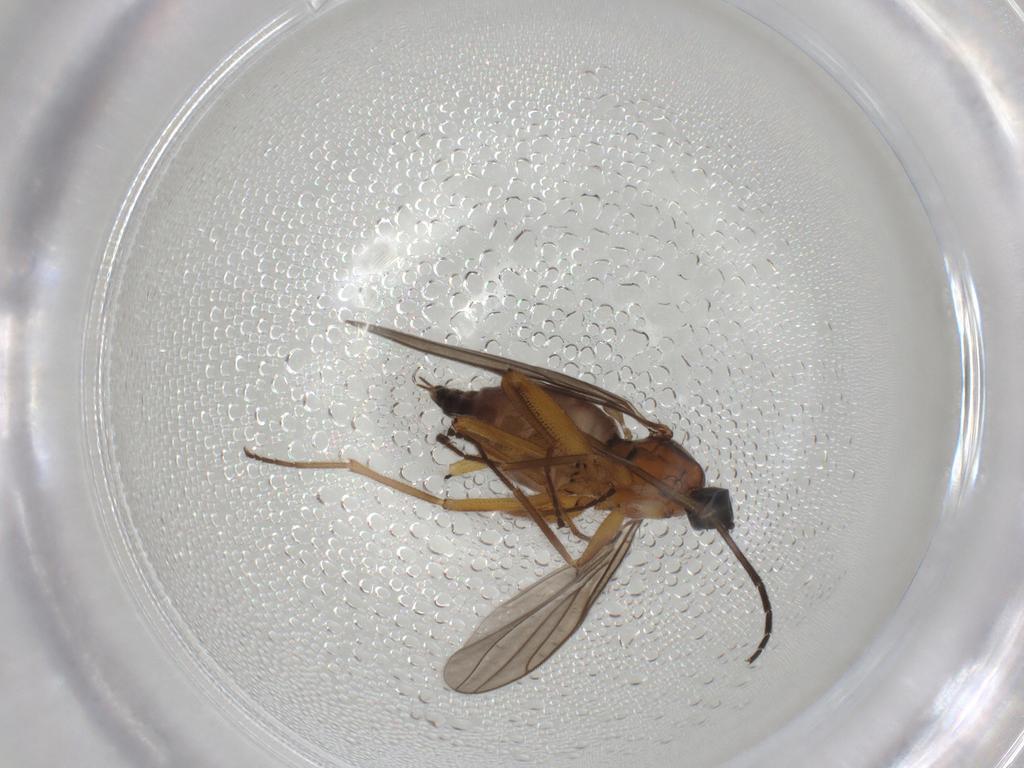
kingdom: Animalia
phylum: Arthropoda
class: Insecta
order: Diptera
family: Hybotidae
